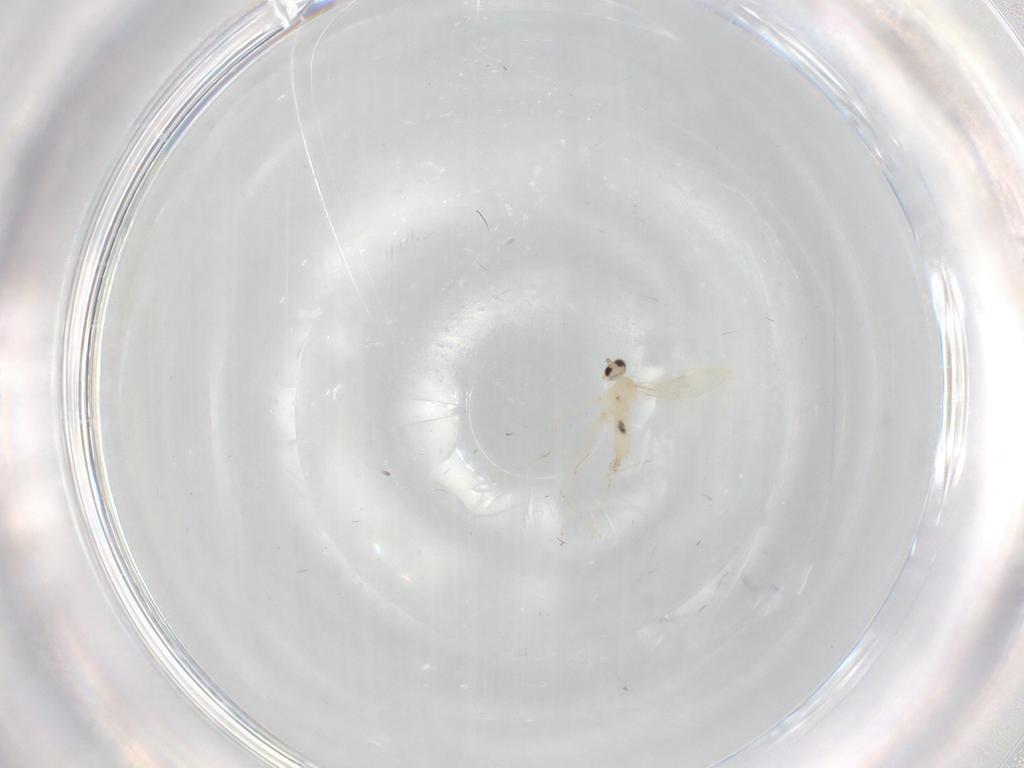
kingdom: Animalia
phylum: Arthropoda
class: Insecta
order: Diptera
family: Cecidomyiidae
